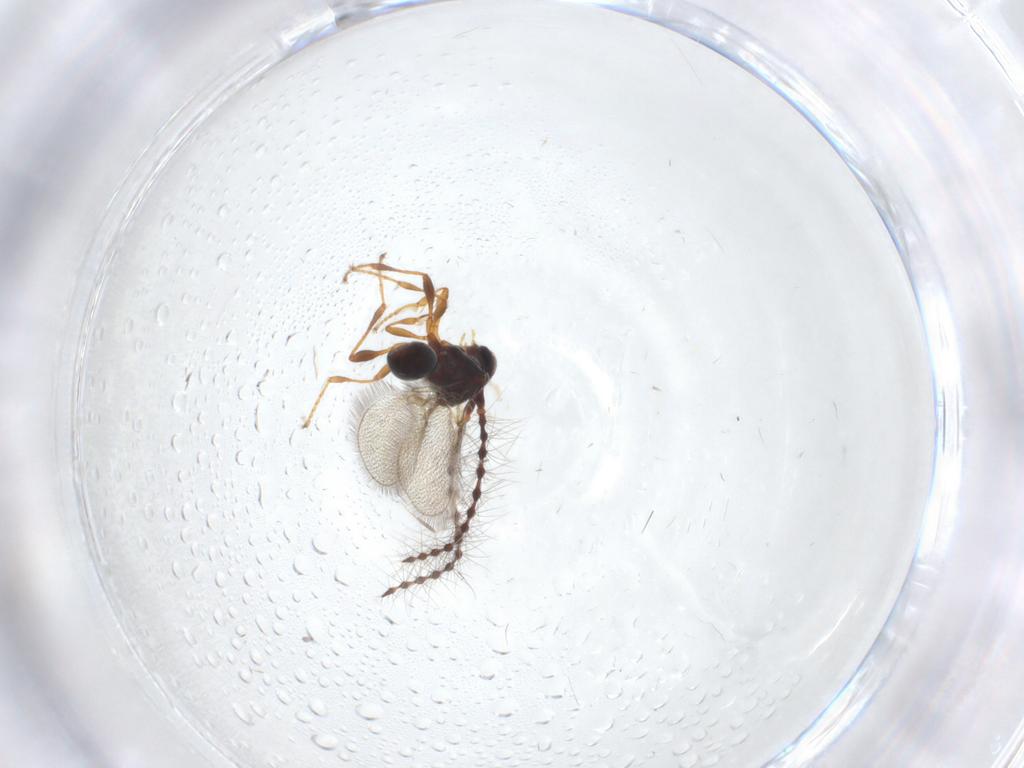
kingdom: Animalia
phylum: Arthropoda
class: Insecta
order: Hymenoptera
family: Diapriidae
